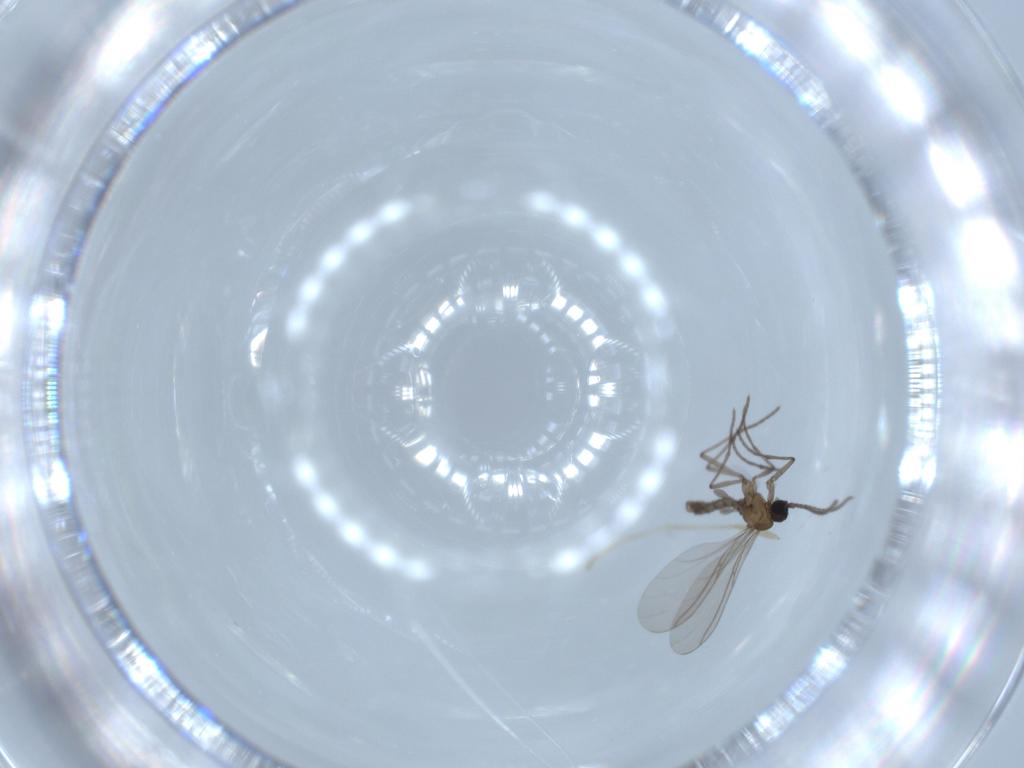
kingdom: Animalia
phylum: Arthropoda
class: Insecta
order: Diptera
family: Psychodidae
